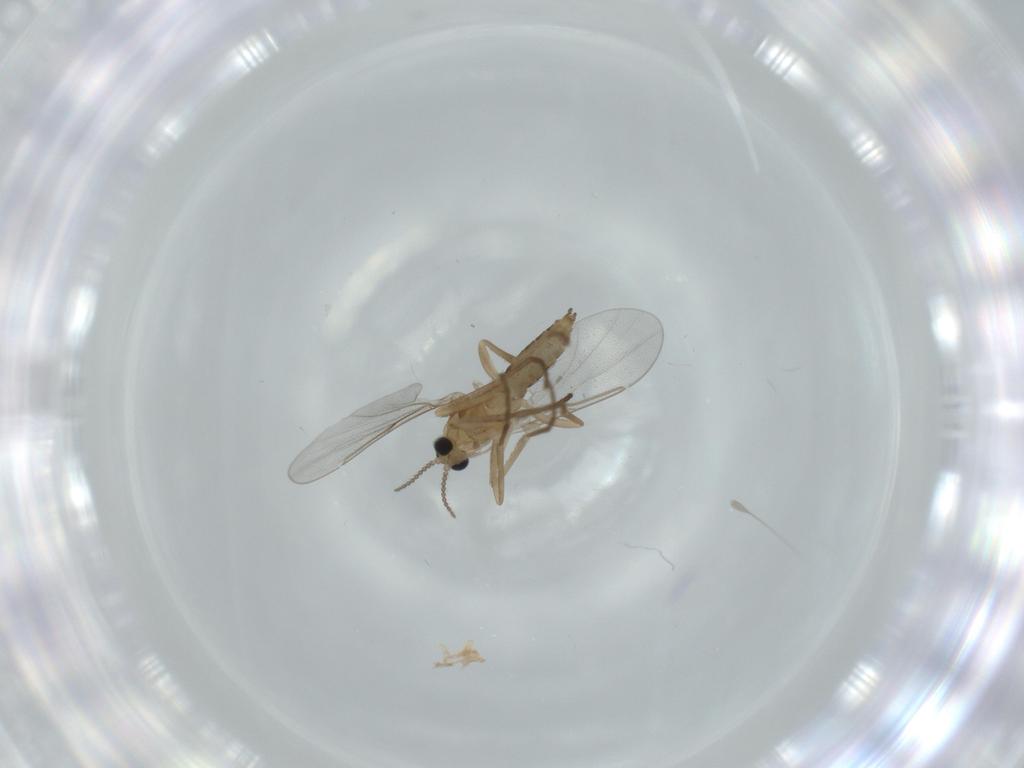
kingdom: Animalia
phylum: Arthropoda
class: Insecta
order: Diptera
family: Cecidomyiidae
